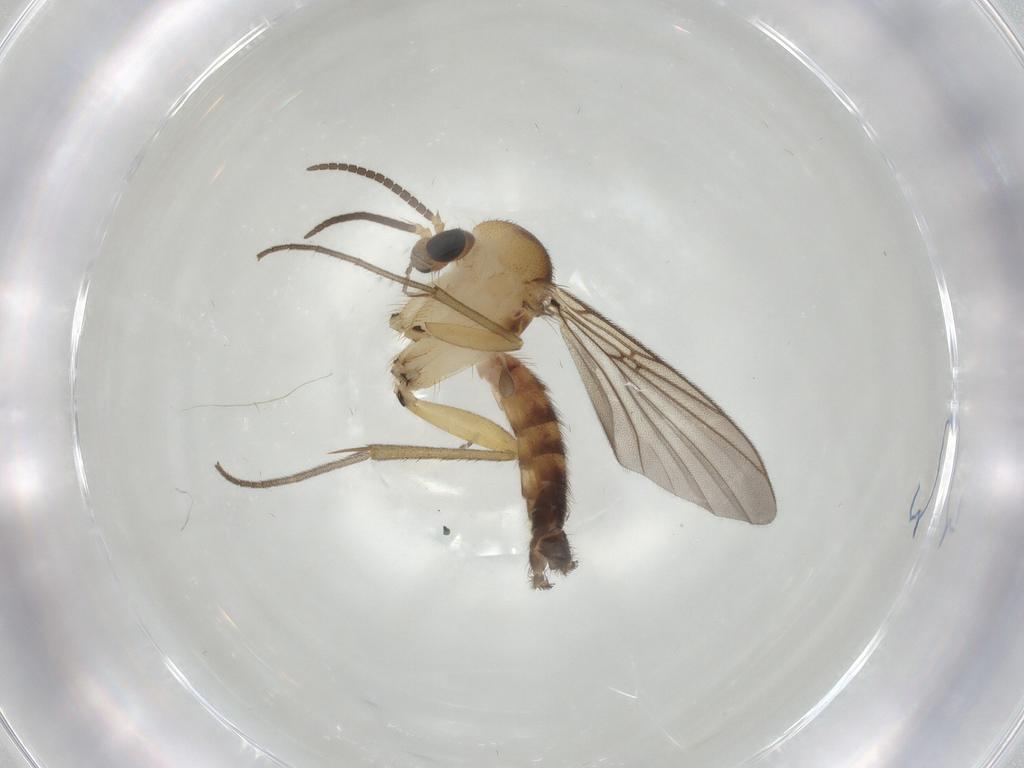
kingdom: Animalia
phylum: Arthropoda
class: Insecta
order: Diptera
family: Mycetophilidae
